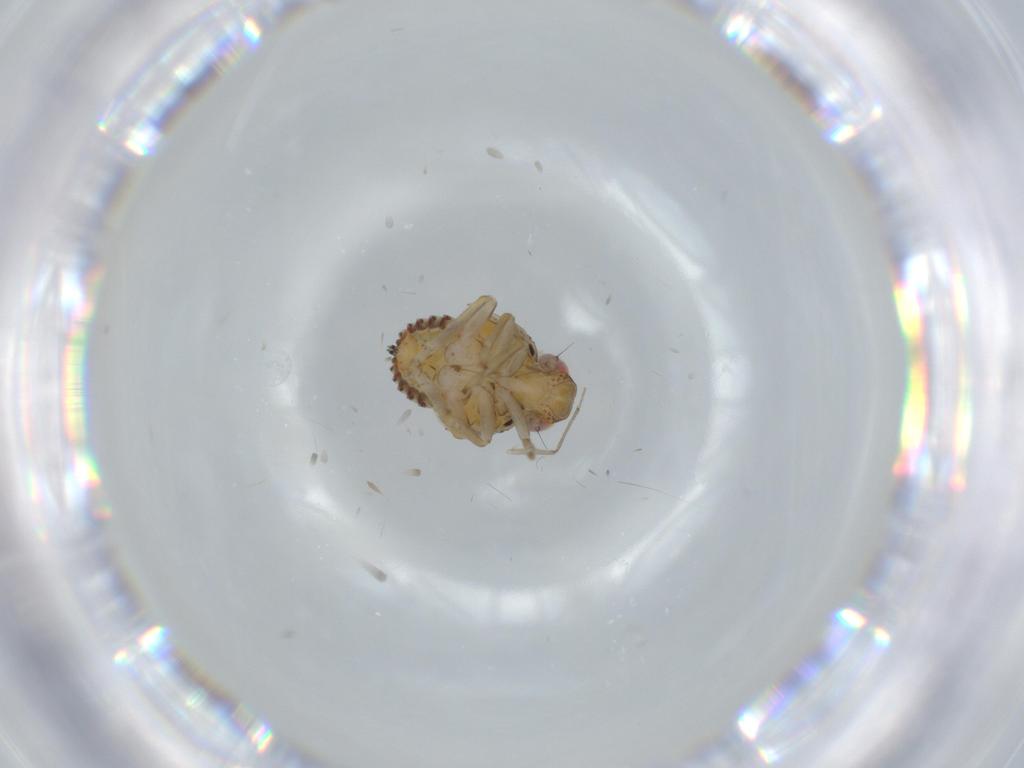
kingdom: Animalia
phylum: Arthropoda
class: Insecta
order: Hemiptera
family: Issidae
